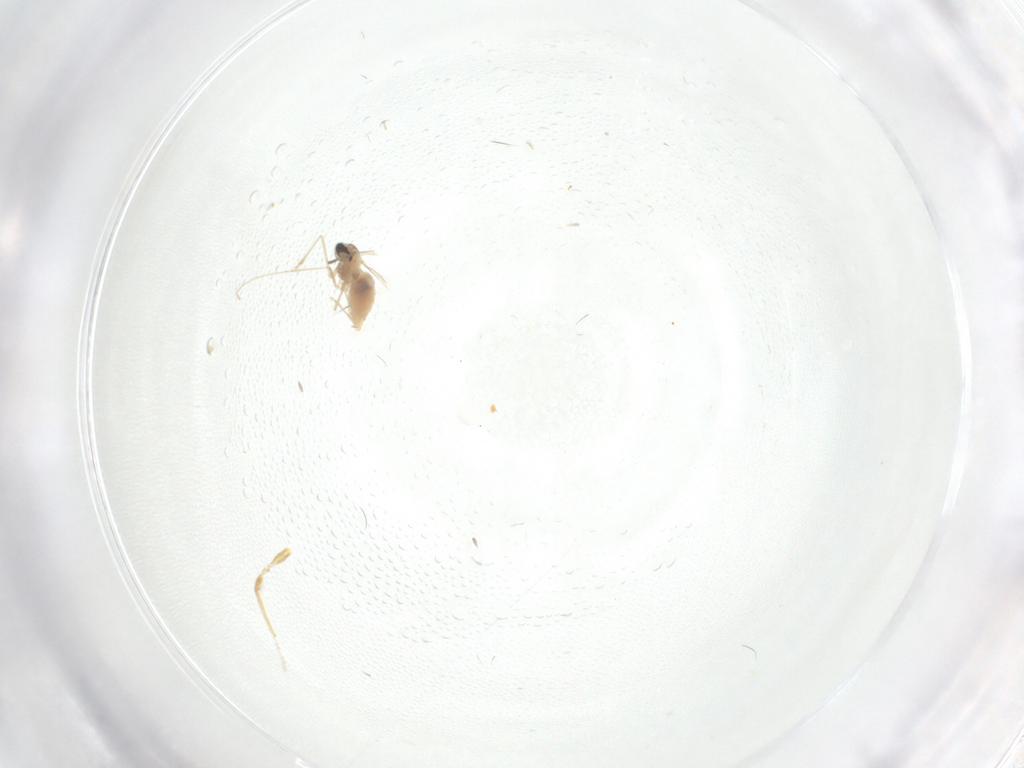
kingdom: Animalia
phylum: Arthropoda
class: Insecta
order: Diptera
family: Cecidomyiidae
